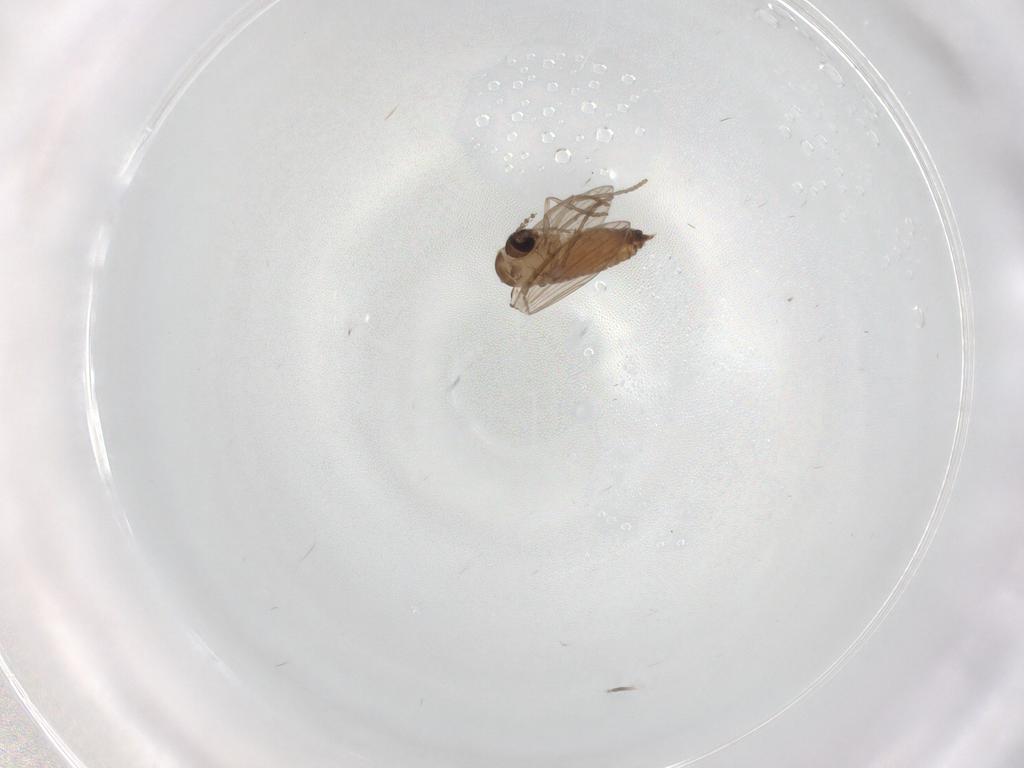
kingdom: Animalia
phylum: Arthropoda
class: Insecta
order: Diptera
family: Psychodidae
